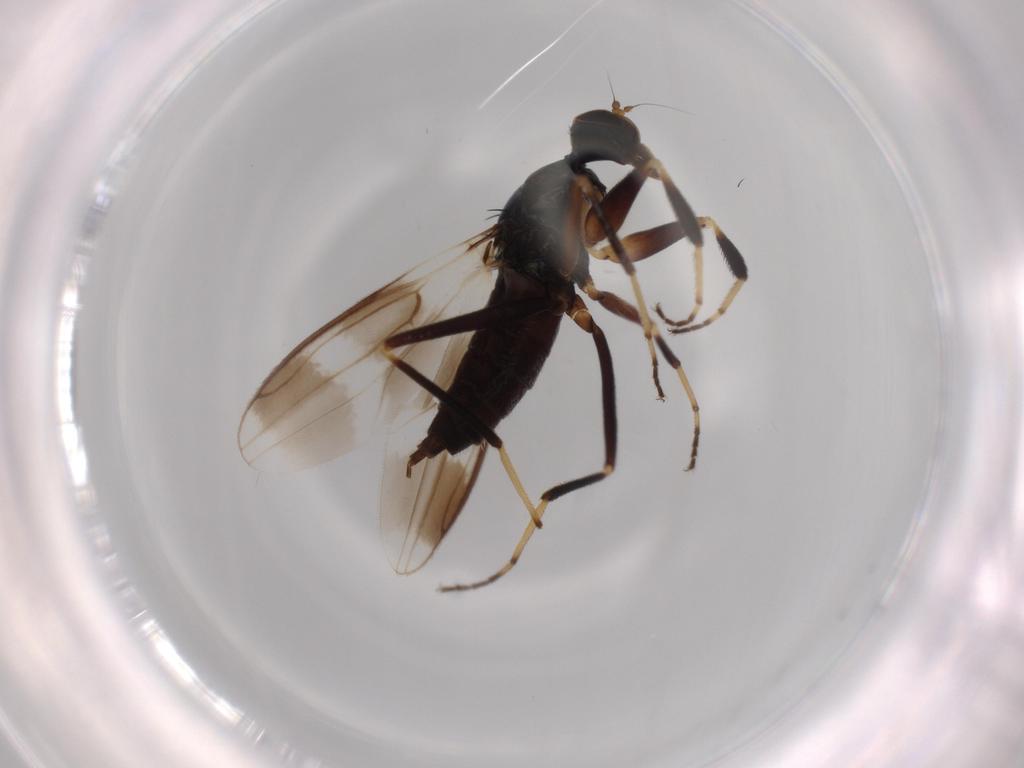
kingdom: Animalia
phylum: Arthropoda
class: Insecta
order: Diptera
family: Hybotidae
